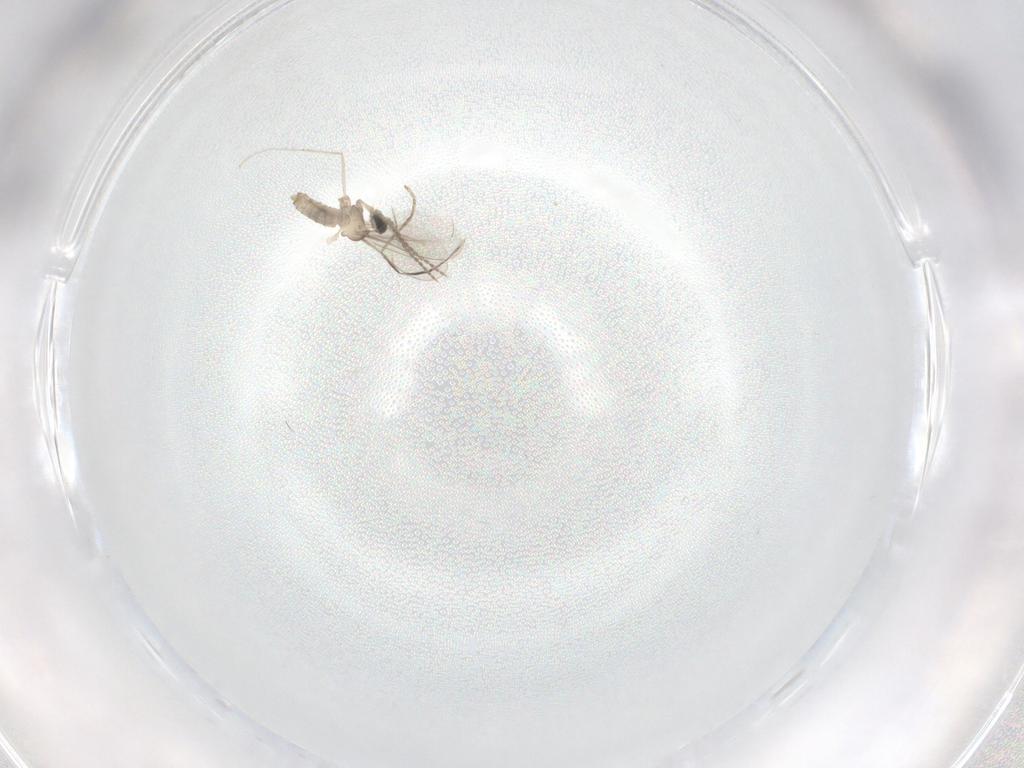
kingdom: Animalia
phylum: Arthropoda
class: Insecta
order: Diptera
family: Cecidomyiidae
